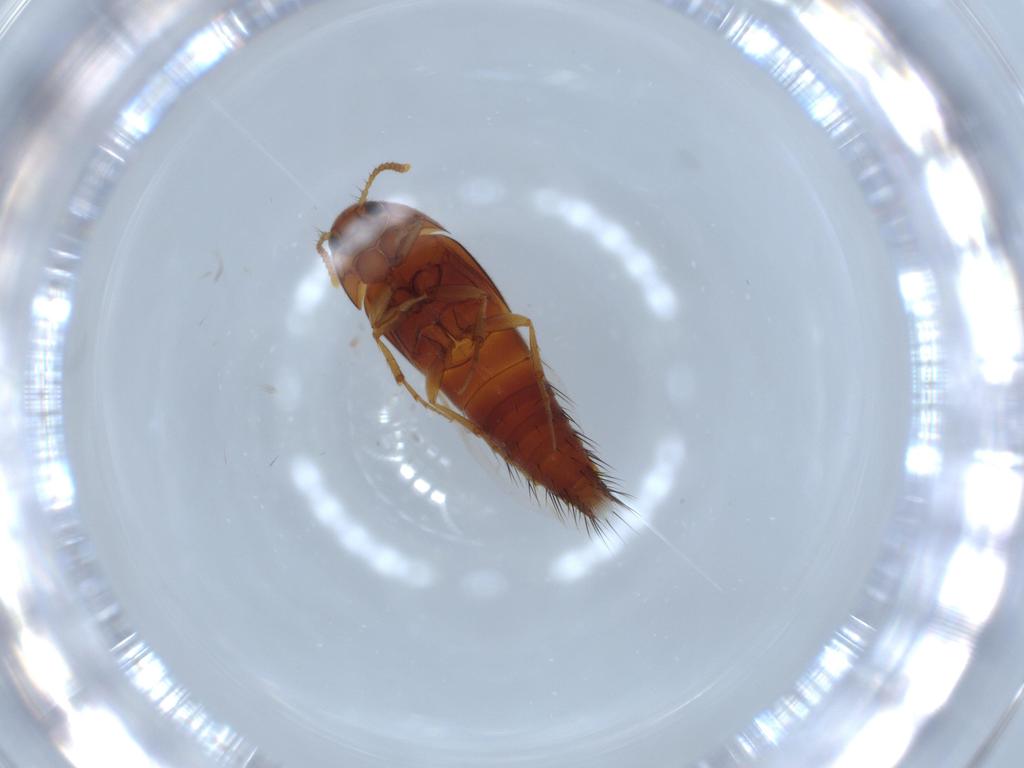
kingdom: Animalia
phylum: Arthropoda
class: Insecta
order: Coleoptera
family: Staphylinidae
